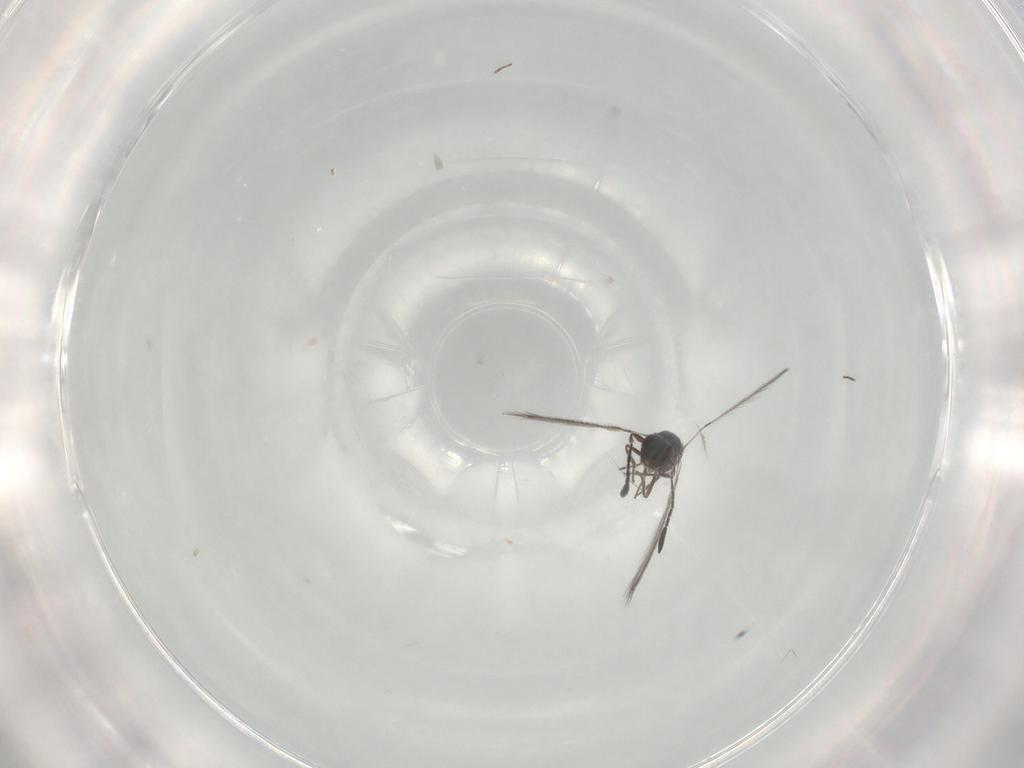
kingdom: Animalia
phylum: Arthropoda
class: Insecta
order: Hymenoptera
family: Mymaridae
